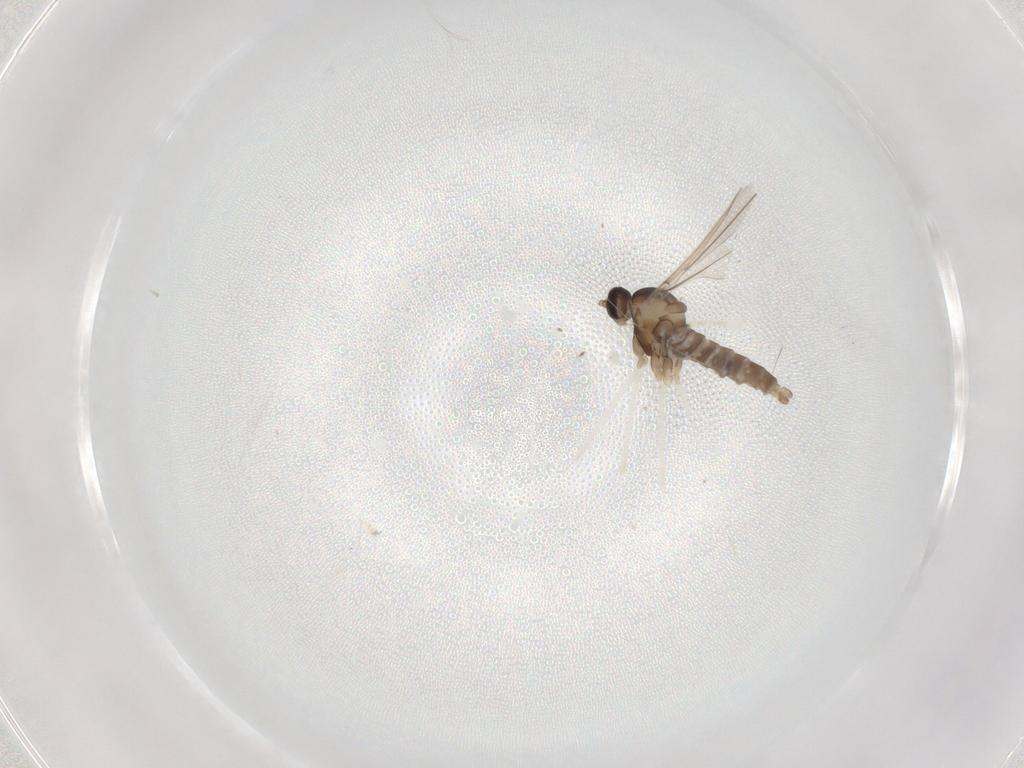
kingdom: Animalia
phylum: Arthropoda
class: Insecta
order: Diptera
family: Cecidomyiidae
